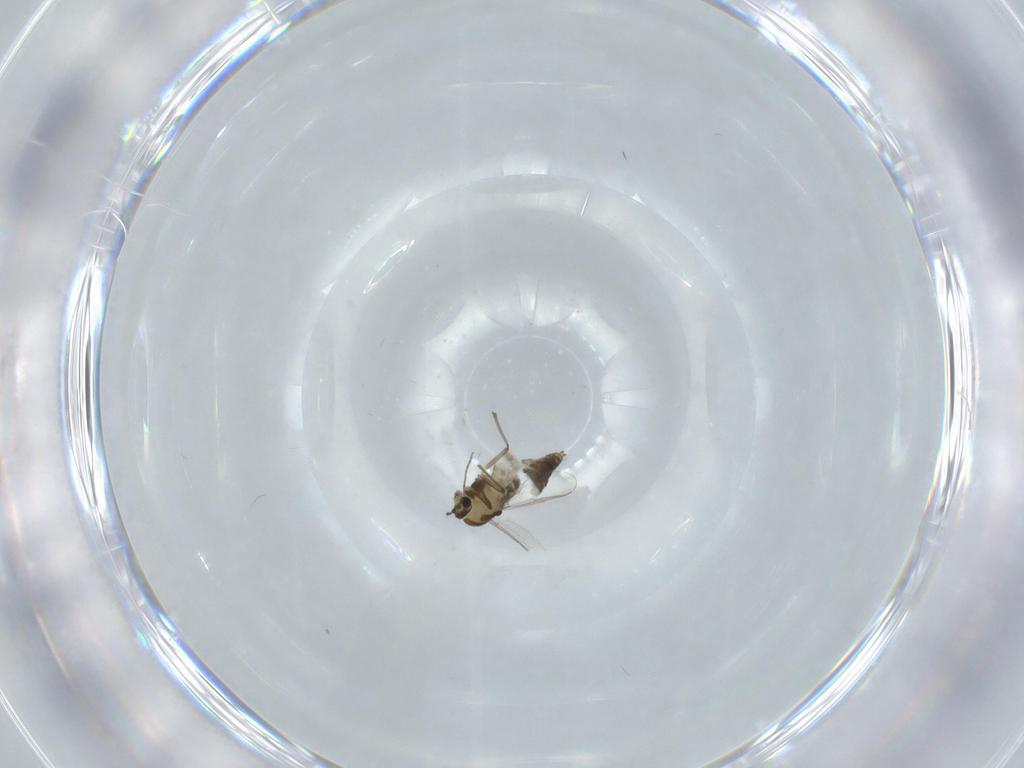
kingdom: Animalia
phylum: Arthropoda
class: Insecta
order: Diptera
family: Chironomidae
